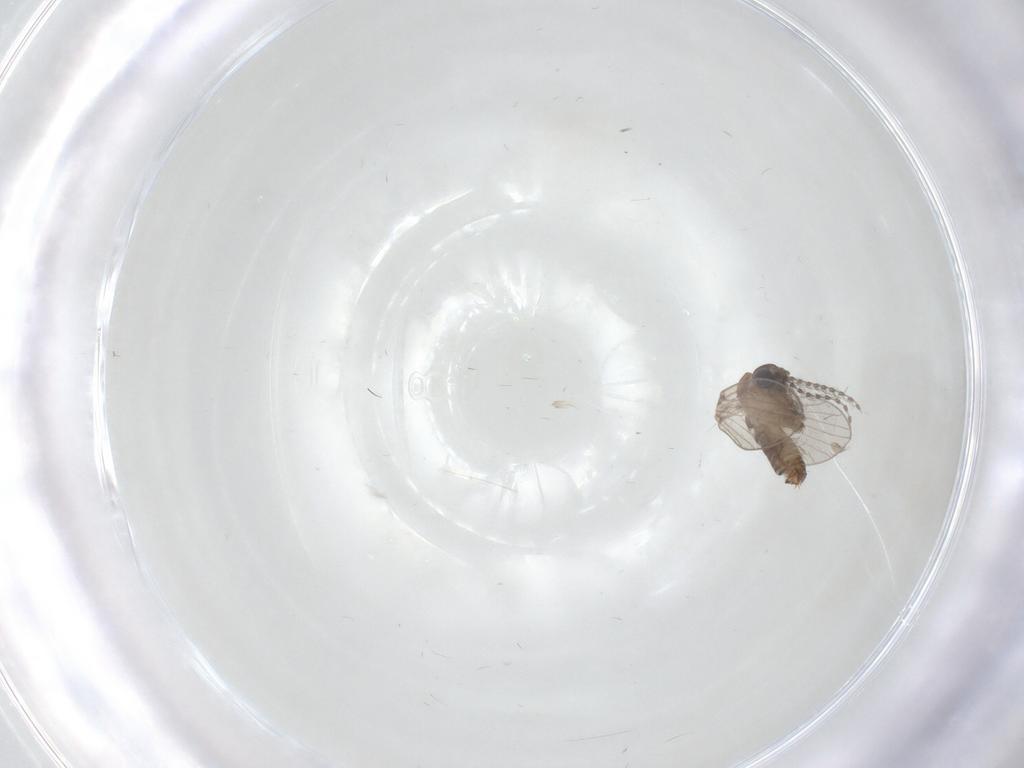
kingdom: Animalia
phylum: Arthropoda
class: Insecta
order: Diptera
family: Psychodidae
